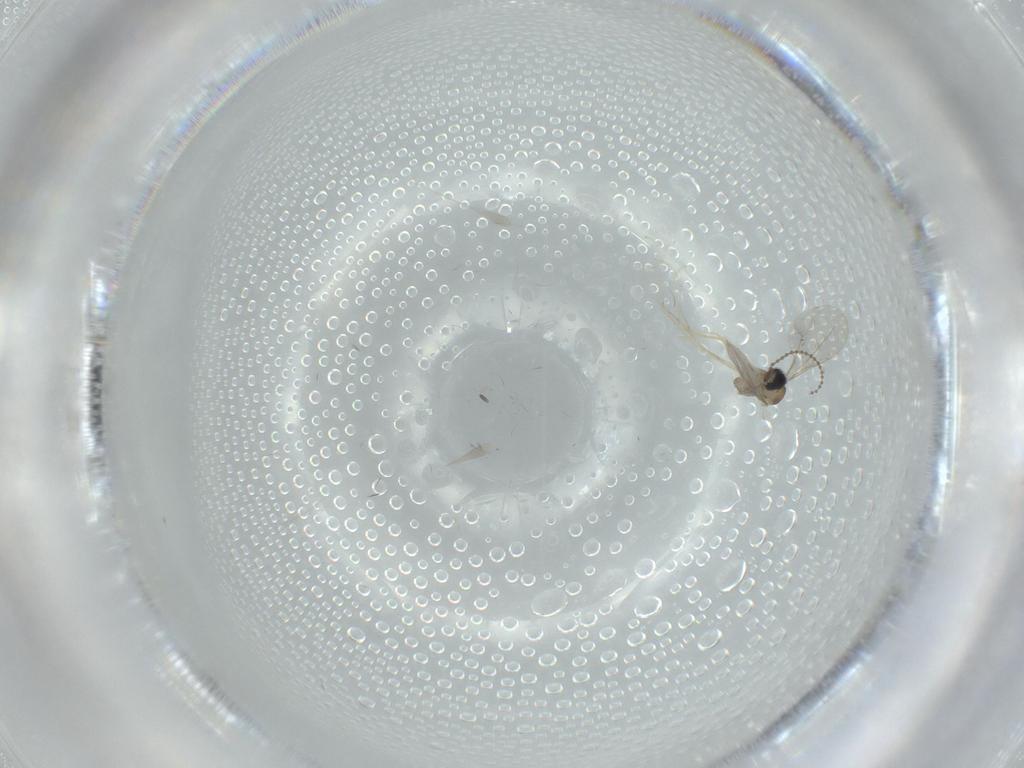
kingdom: Animalia
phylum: Arthropoda
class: Insecta
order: Diptera
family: Cecidomyiidae
